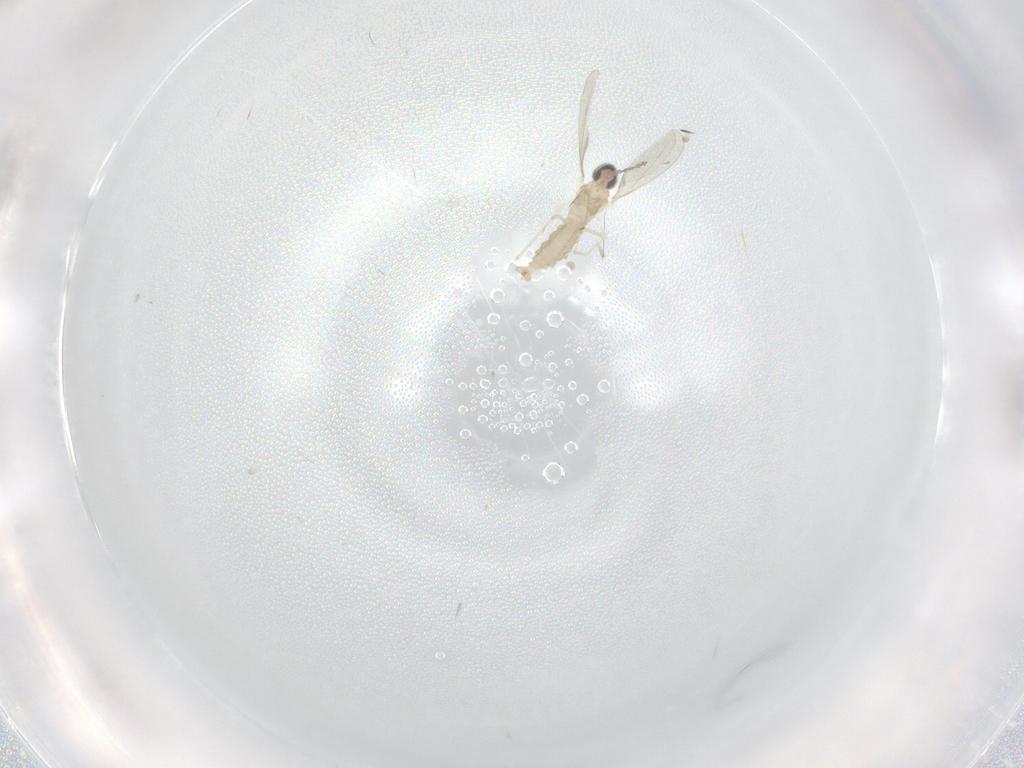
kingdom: Animalia
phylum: Arthropoda
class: Insecta
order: Diptera
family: Cecidomyiidae
